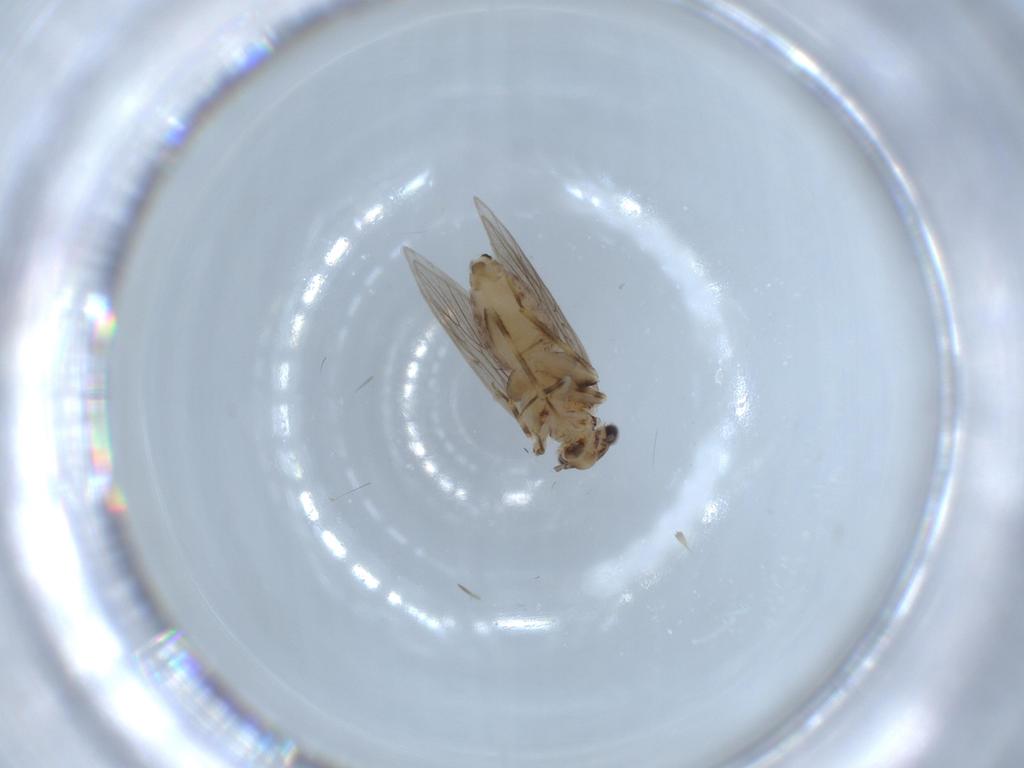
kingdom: Animalia
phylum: Arthropoda
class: Insecta
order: Psocodea
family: Lepidopsocidae
